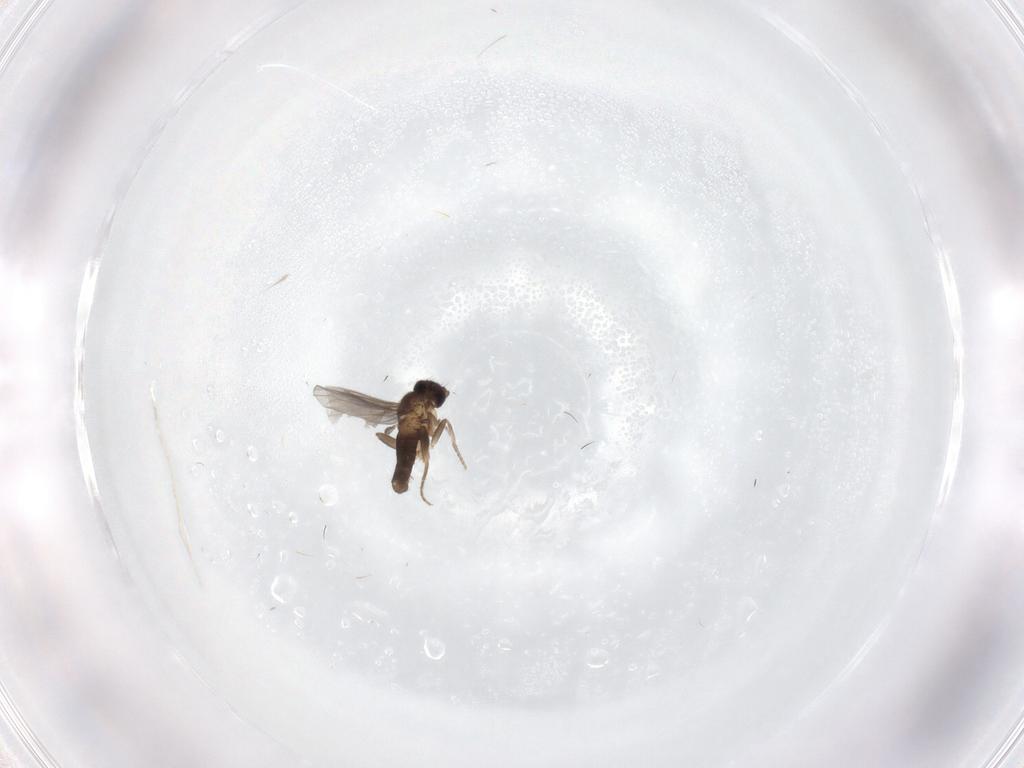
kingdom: Animalia
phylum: Arthropoda
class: Insecta
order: Diptera
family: Bombyliidae
